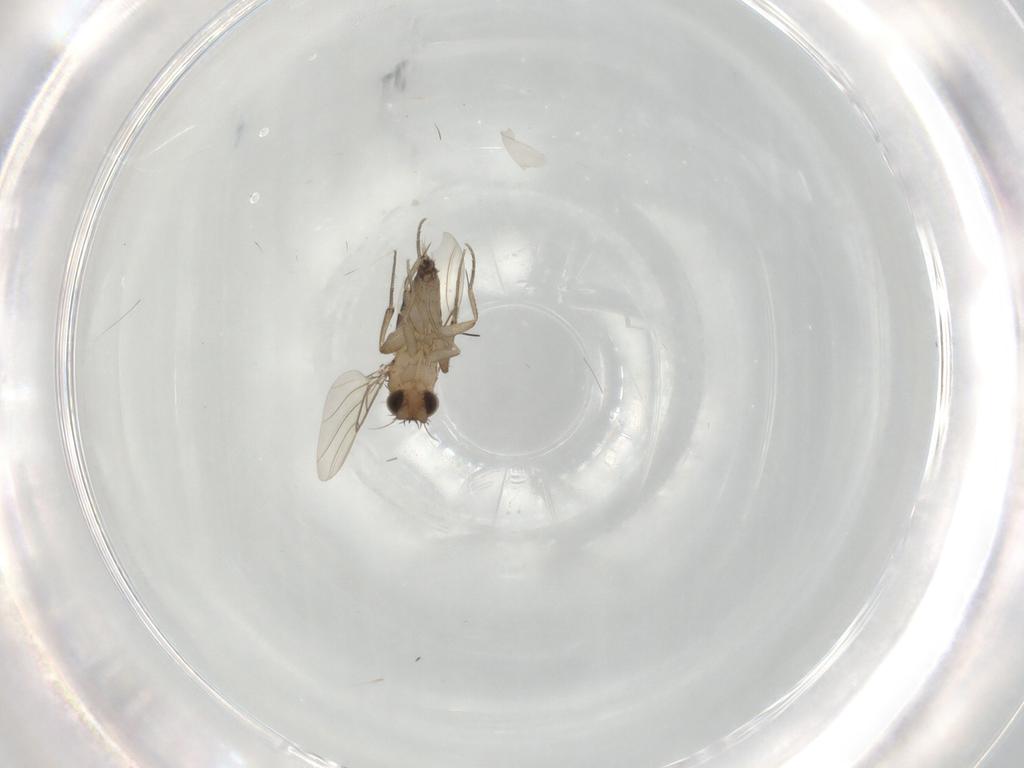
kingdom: Animalia
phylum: Arthropoda
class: Insecta
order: Diptera
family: Phoridae
